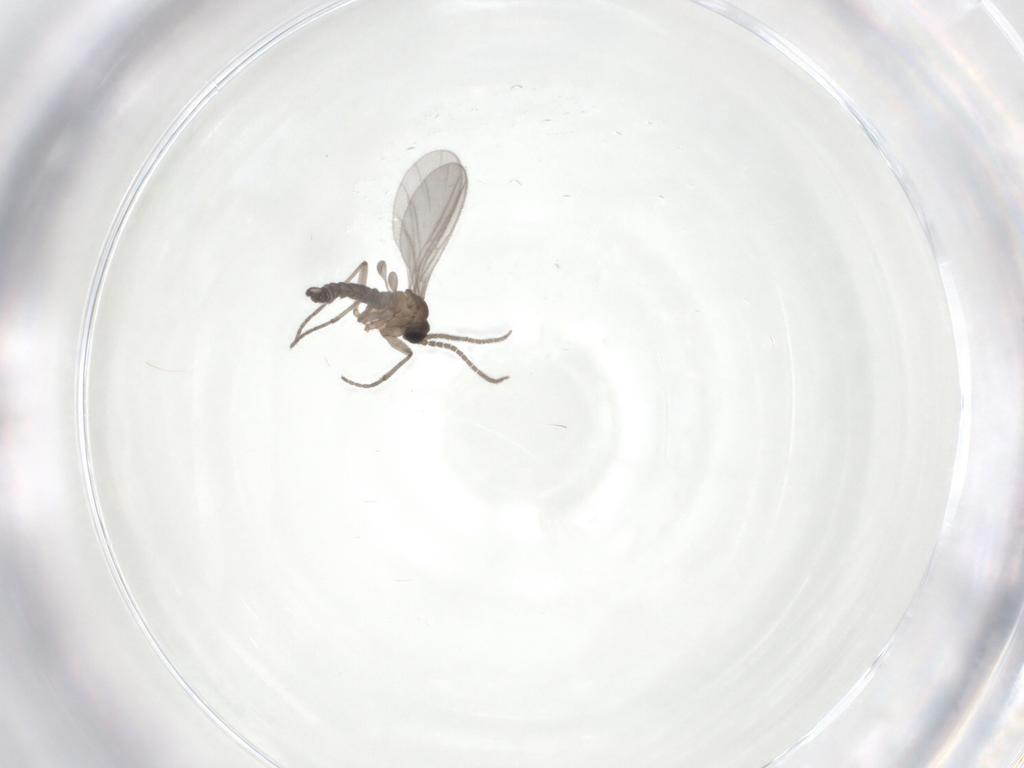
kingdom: Animalia
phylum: Arthropoda
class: Insecta
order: Diptera
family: Sciaridae
